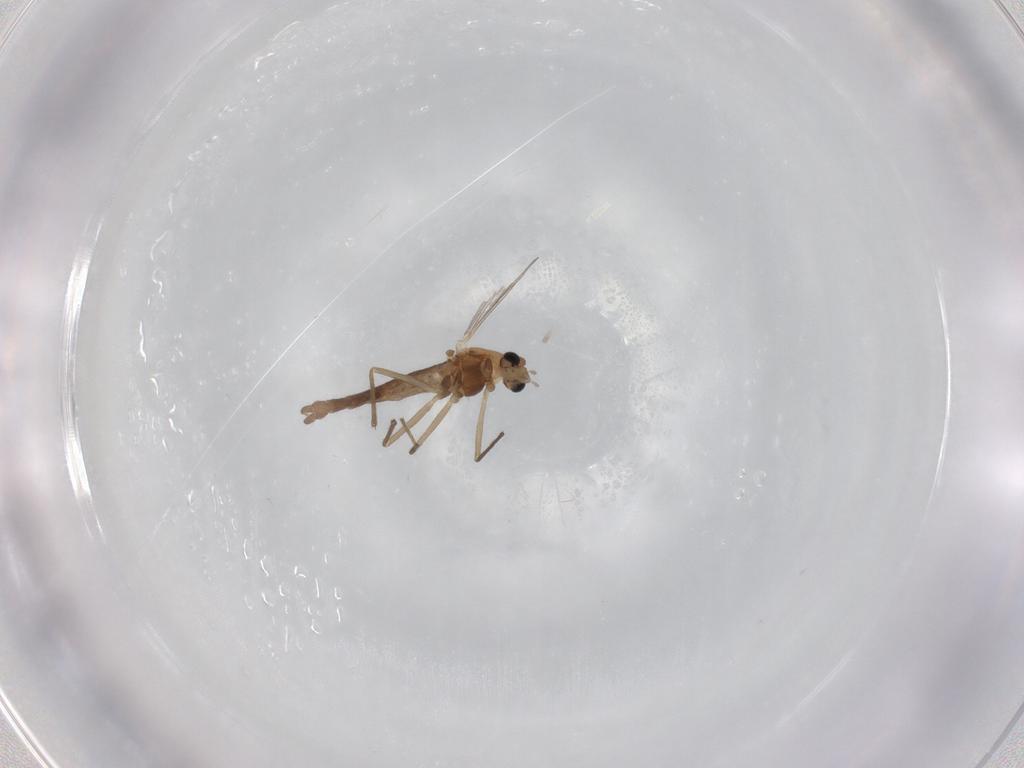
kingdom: Animalia
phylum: Arthropoda
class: Insecta
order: Diptera
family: Chironomidae
